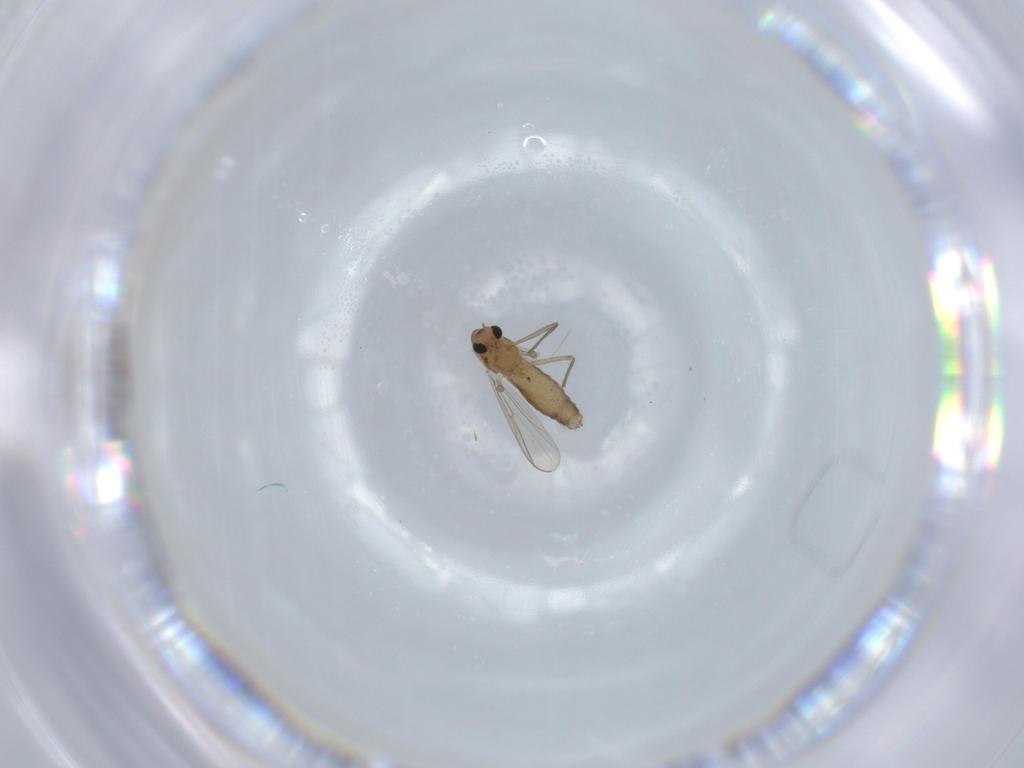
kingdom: Animalia
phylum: Arthropoda
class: Insecta
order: Diptera
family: Chironomidae
